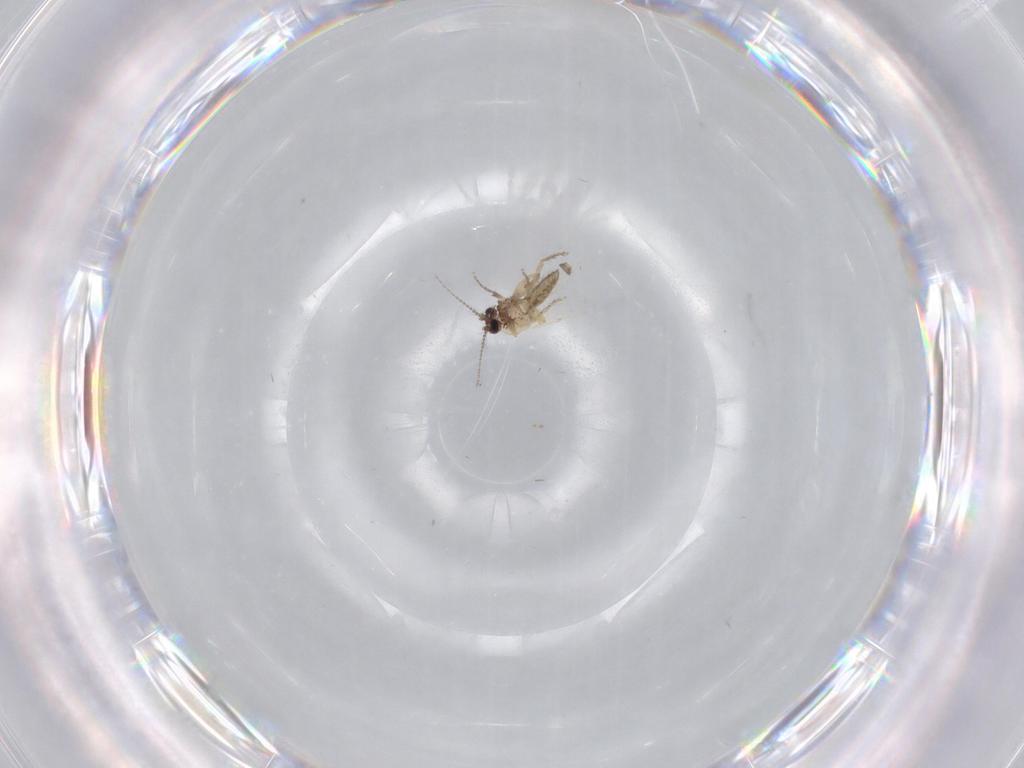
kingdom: Animalia
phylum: Arthropoda
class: Insecta
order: Diptera
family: Ceratopogonidae
